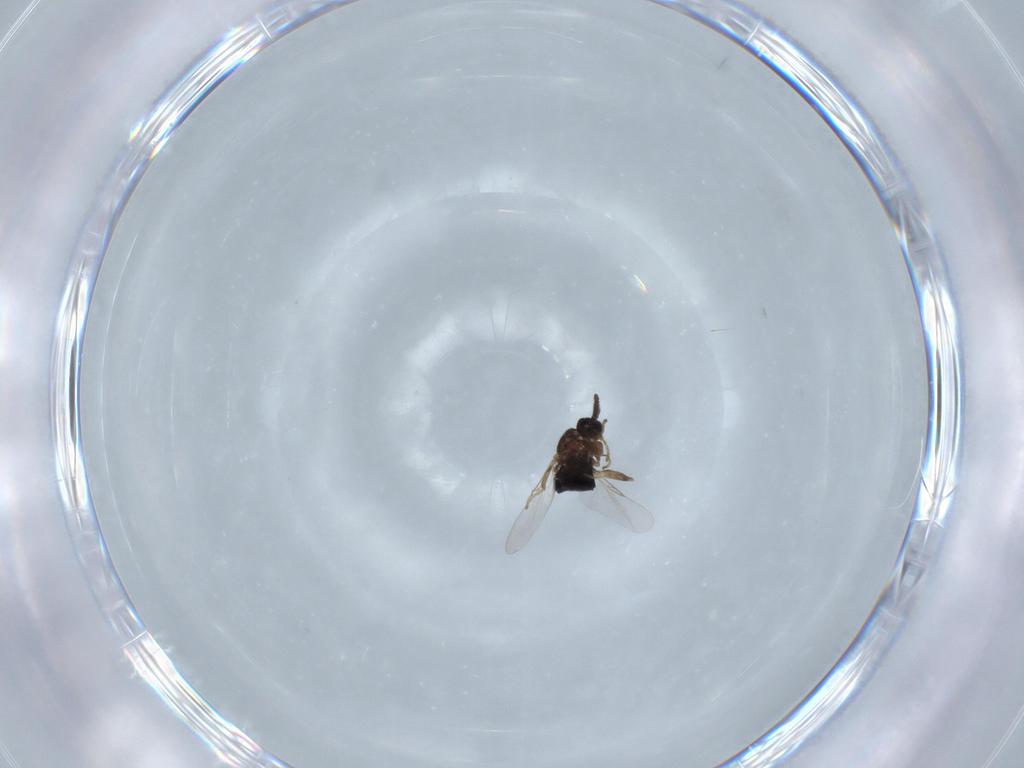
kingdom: Animalia
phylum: Arthropoda
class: Insecta
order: Diptera
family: Scatopsidae
